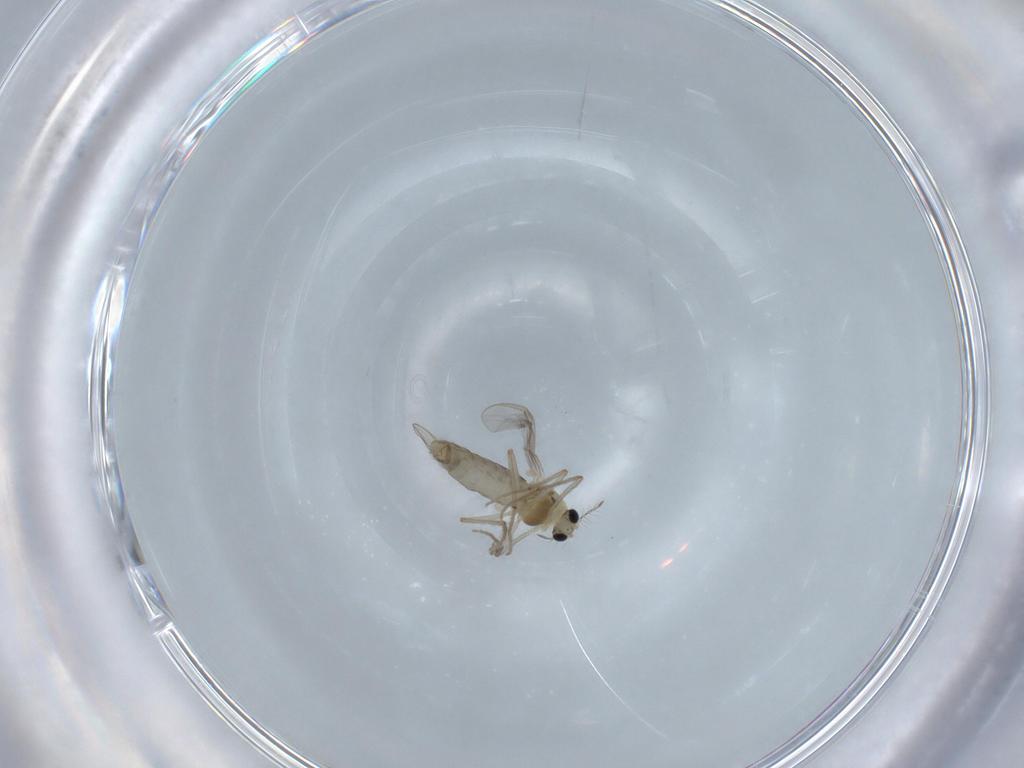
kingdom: Animalia
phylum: Arthropoda
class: Insecta
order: Diptera
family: Chironomidae
